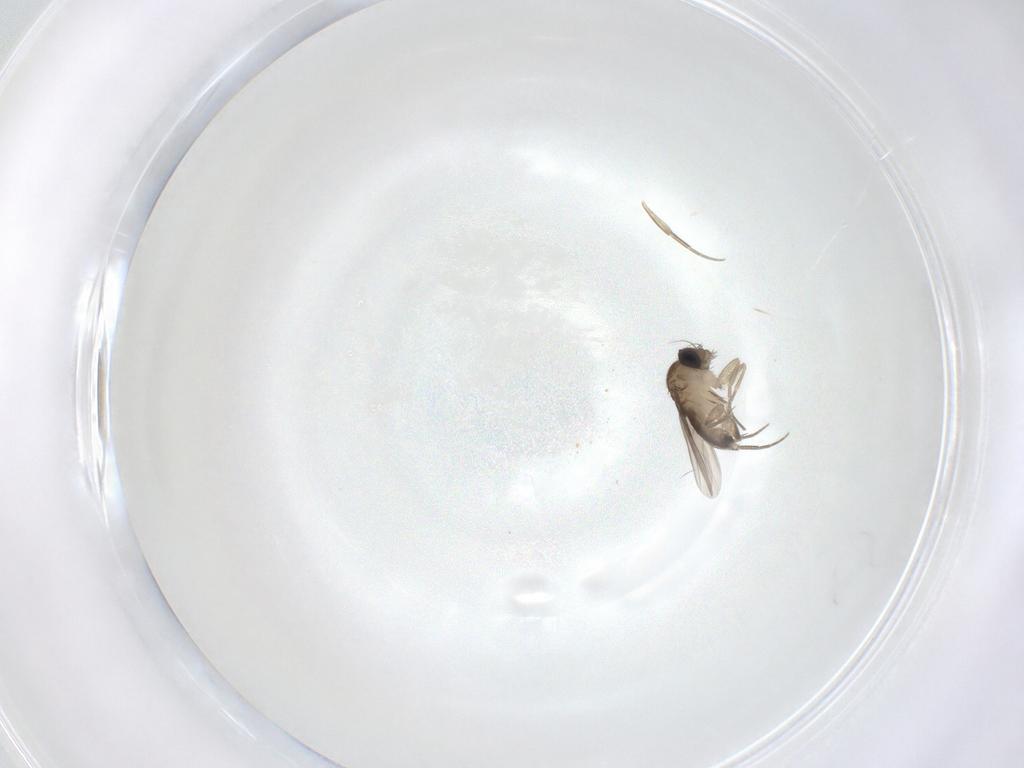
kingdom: Animalia
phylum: Arthropoda
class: Insecta
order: Diptera
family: Phoridae
